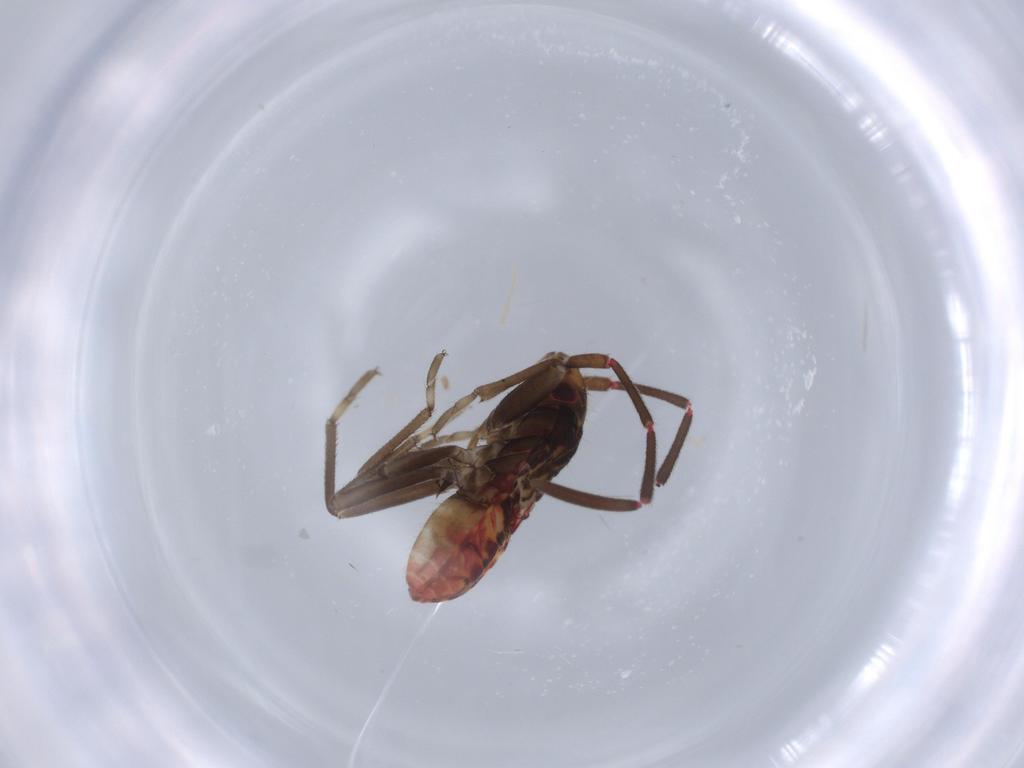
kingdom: Animalia
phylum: Arthropoda
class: Insecta
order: Hemiptera
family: Rhyparochromidae
